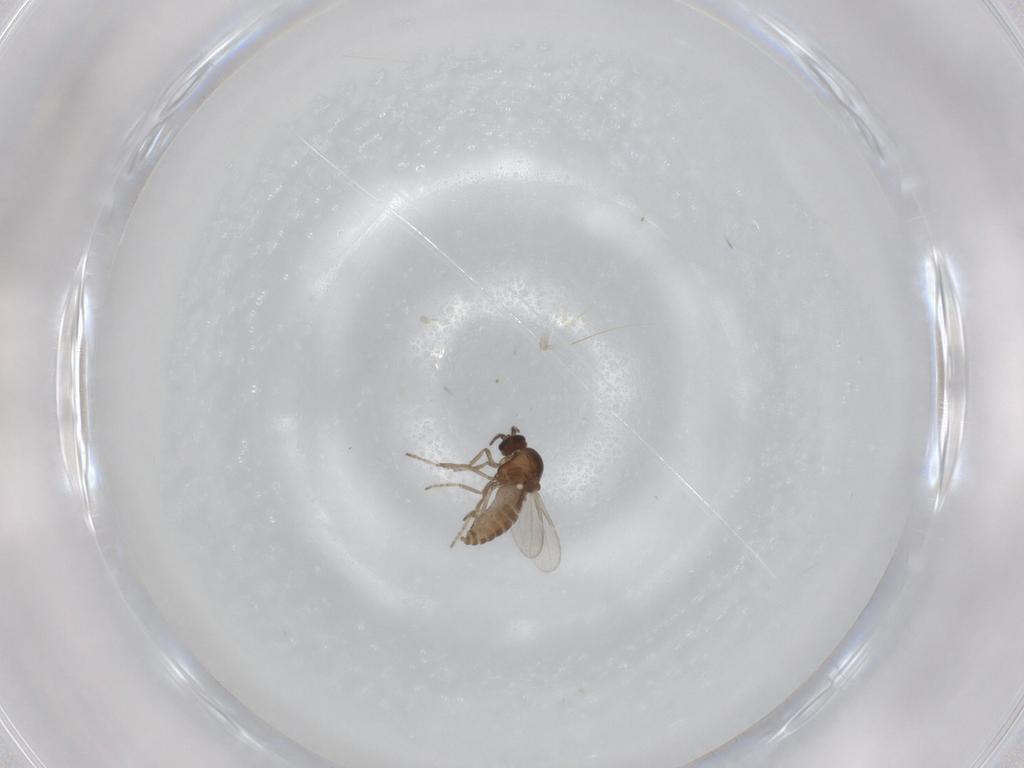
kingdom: Animalia
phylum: Arthropoda
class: Insecta
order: Diptera
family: Ceratopogonidae
